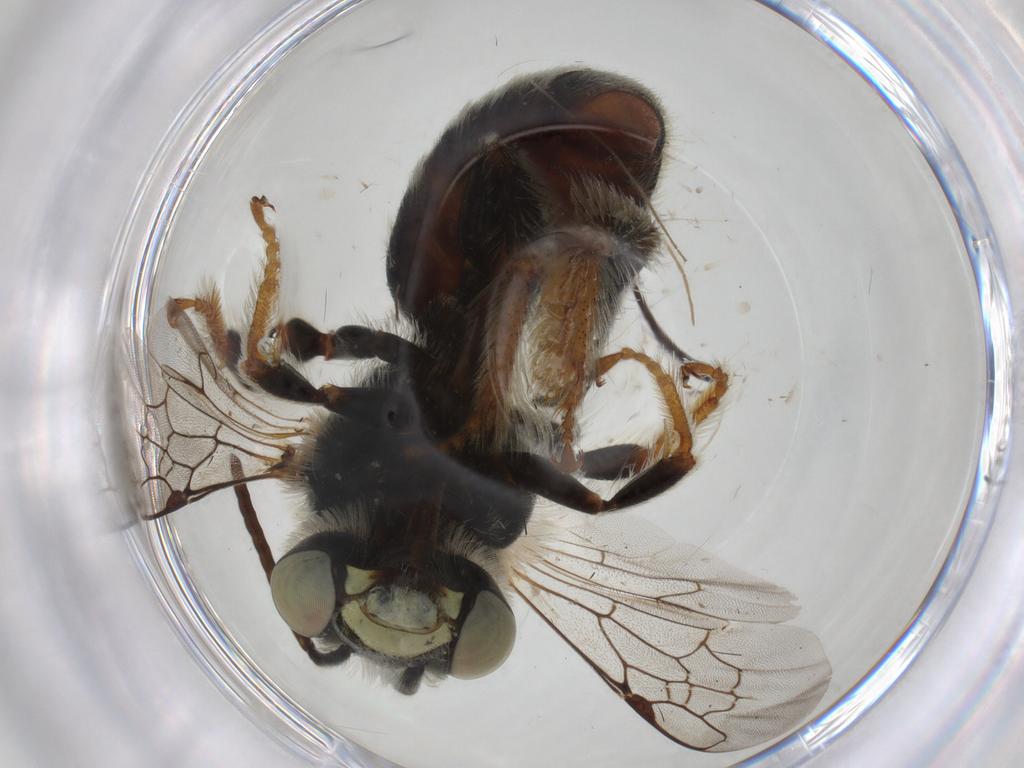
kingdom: Animalia
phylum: Arthropoda
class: Insecta
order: Hymenoptera
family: Apidae
